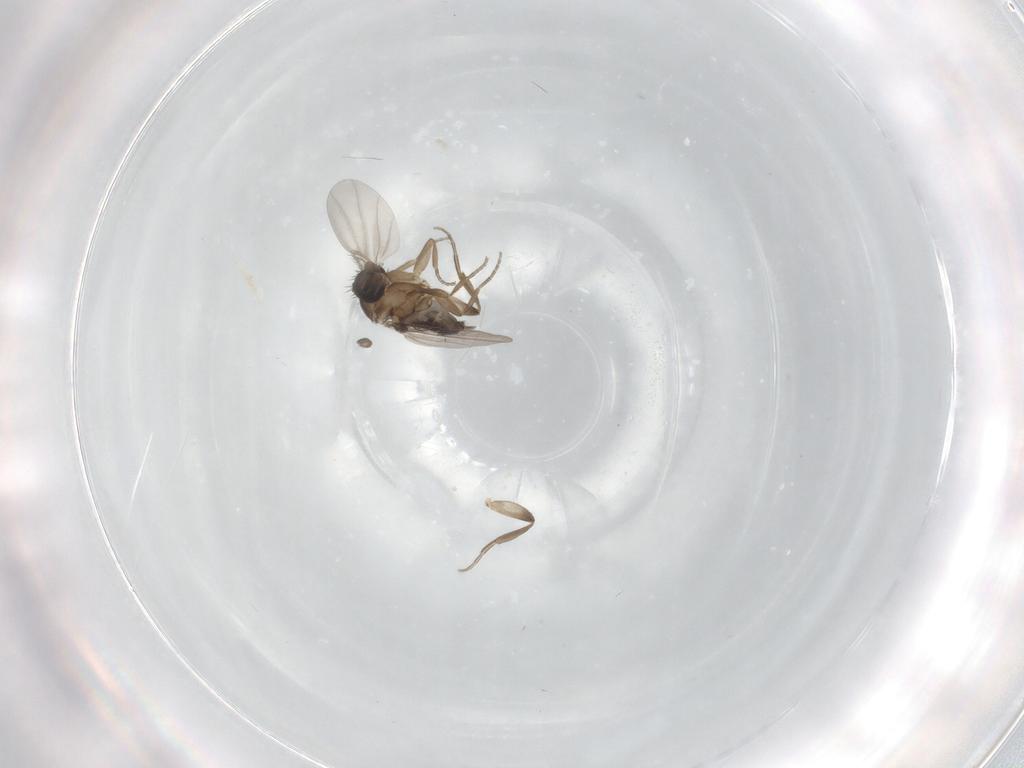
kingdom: Animalia
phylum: Arthropoda
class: Insecta
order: Diptera
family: Phoridae
